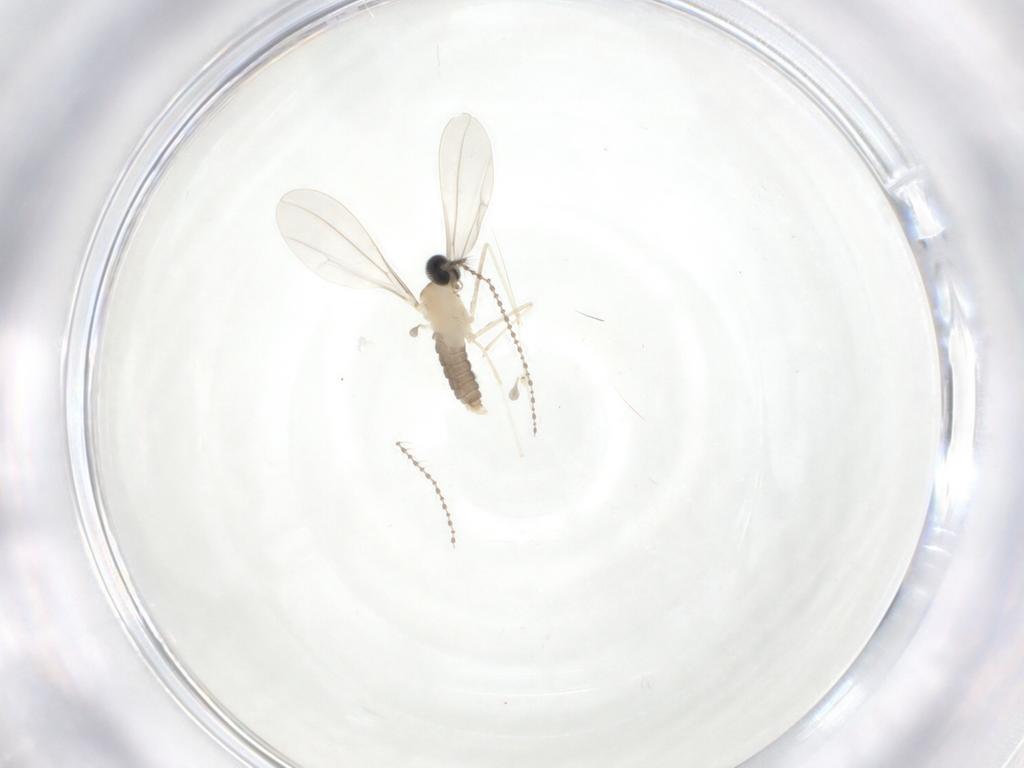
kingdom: Animalia
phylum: Arthropoda
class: Insecta
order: Diptera
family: Cecidomyiidae
